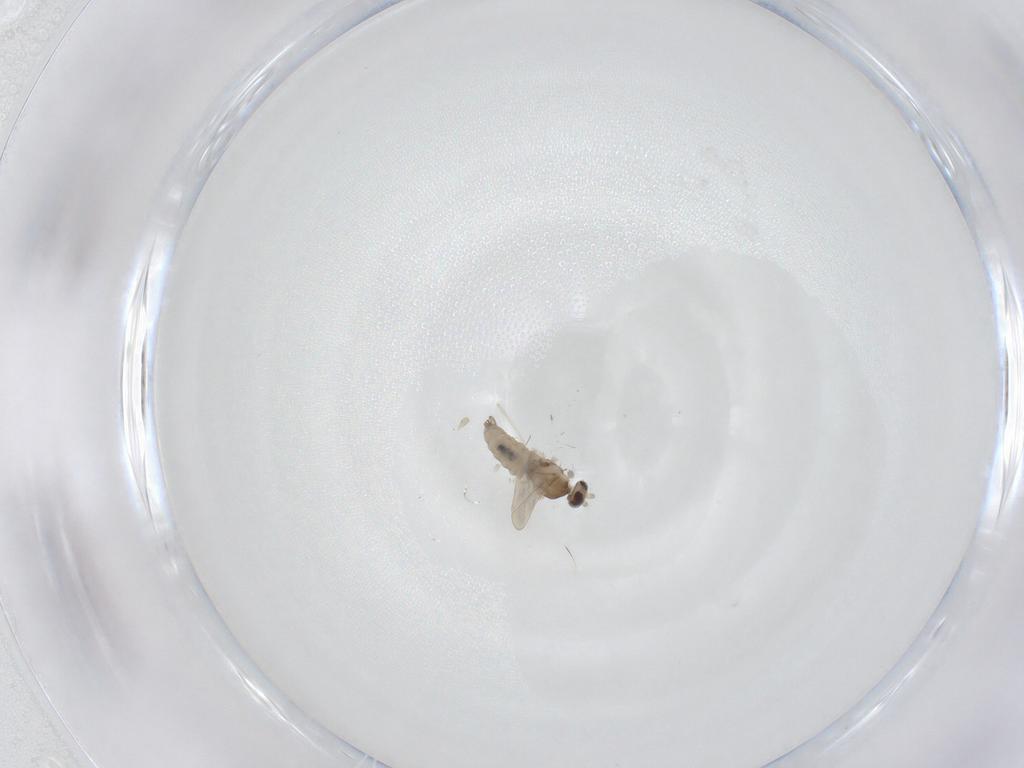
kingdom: Animalia
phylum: Arthropoda
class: Insecta
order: Diptera
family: Cecidomyiidae
